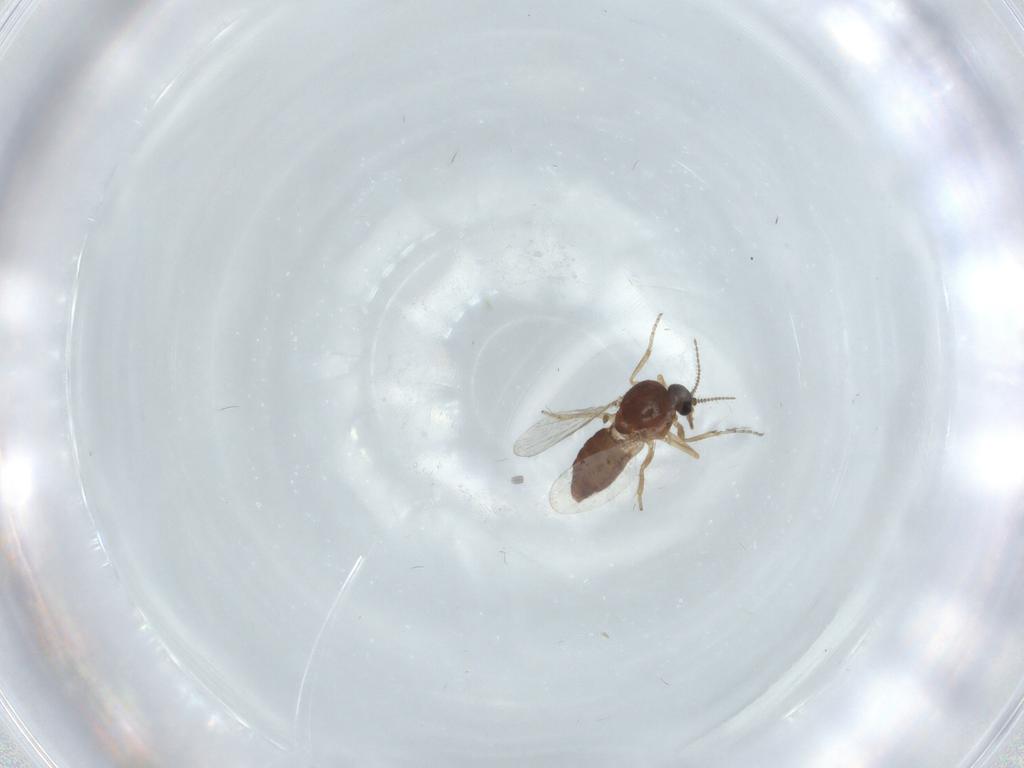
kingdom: Animalia
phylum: Arthropoda
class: Insecta
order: Diptera
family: Ceratopogonidae
